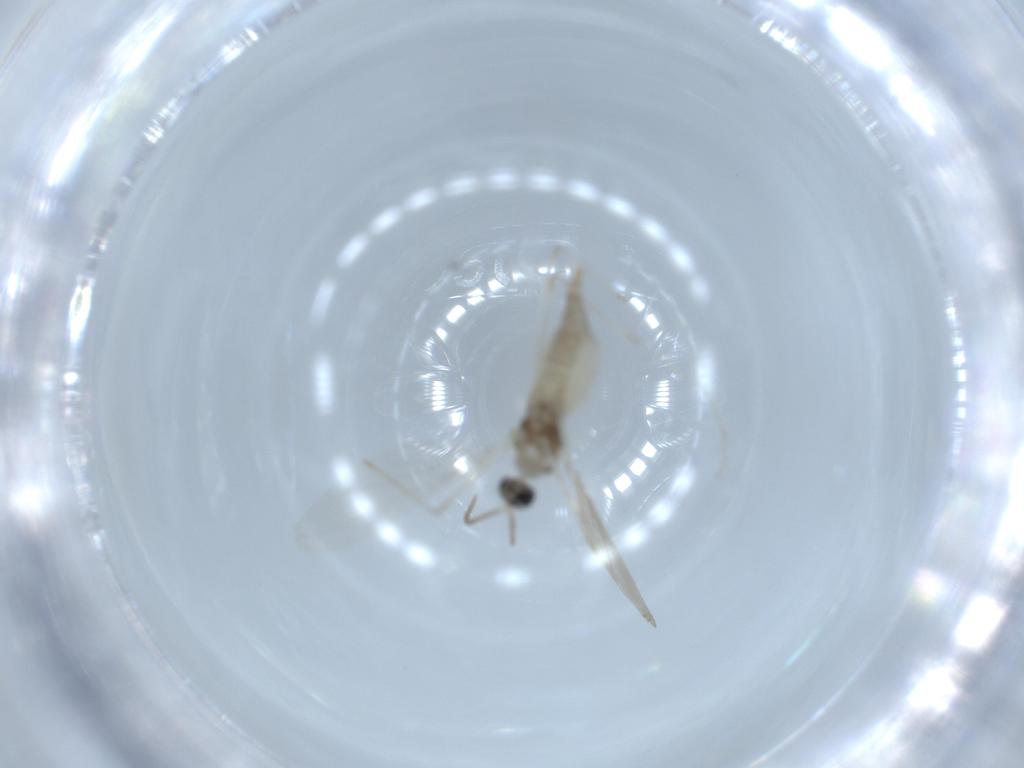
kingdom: Animalia
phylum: Arthropoda
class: Insecta
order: Diptera
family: Cecidomyiidae
